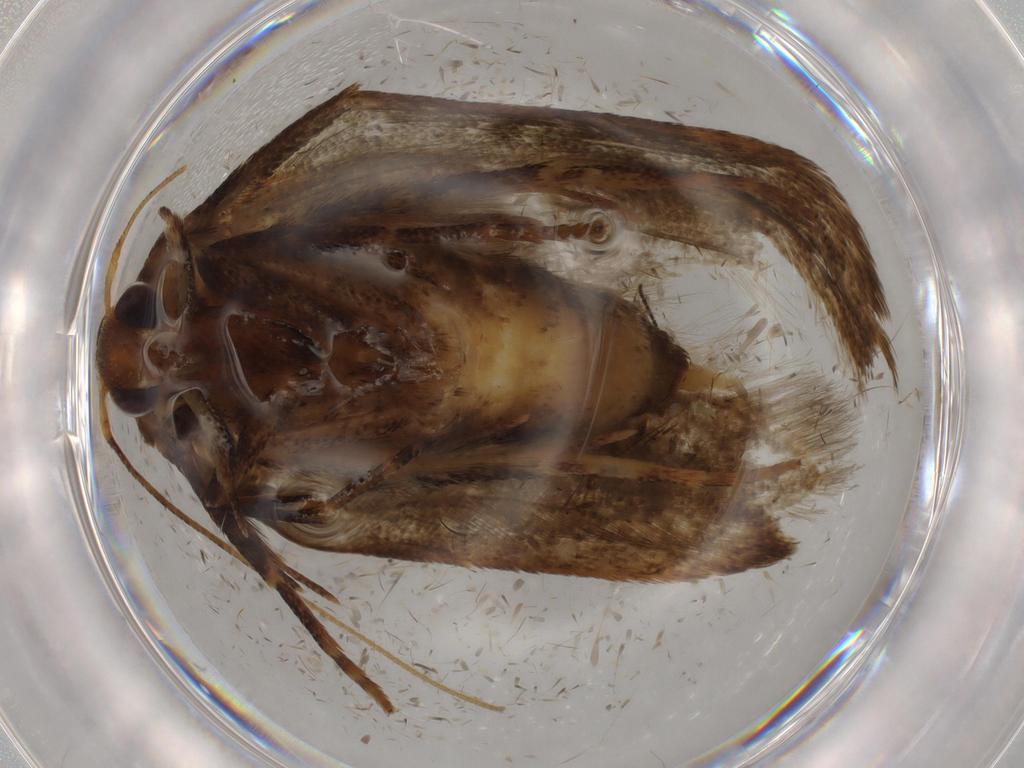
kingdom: Animalia
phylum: Arthropoda
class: Insecta
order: Lepidoptera
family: Blastobasidae
